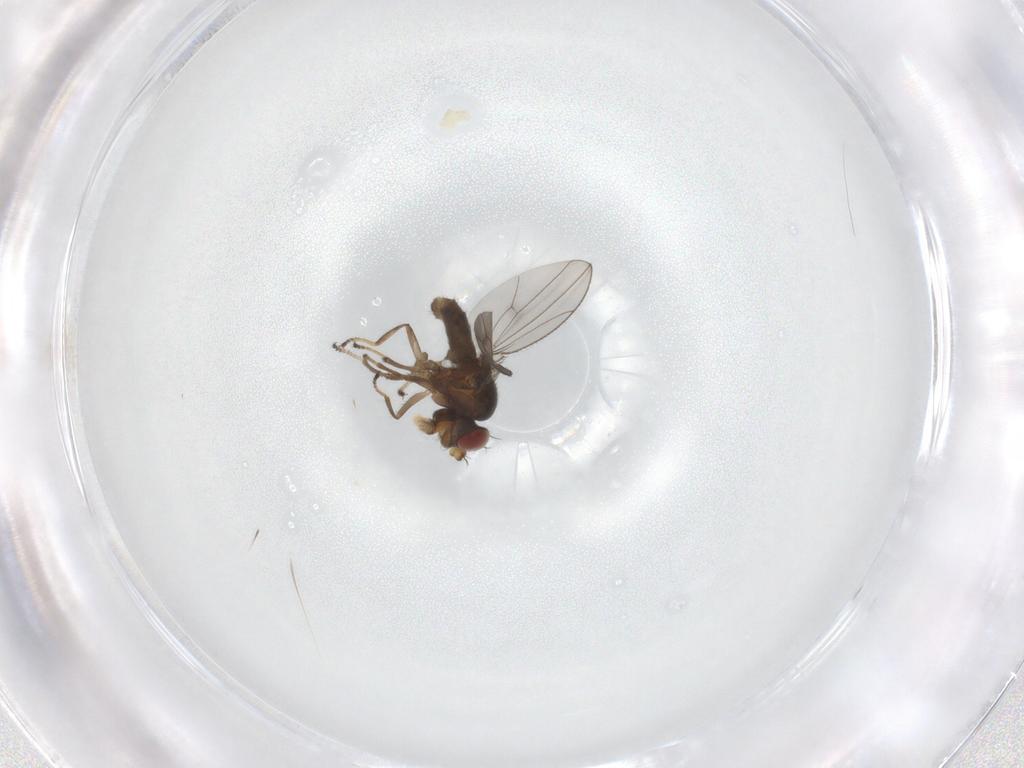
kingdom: Animalia
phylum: Arthropoda
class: Insecta
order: Diptera
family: Ephydridae
